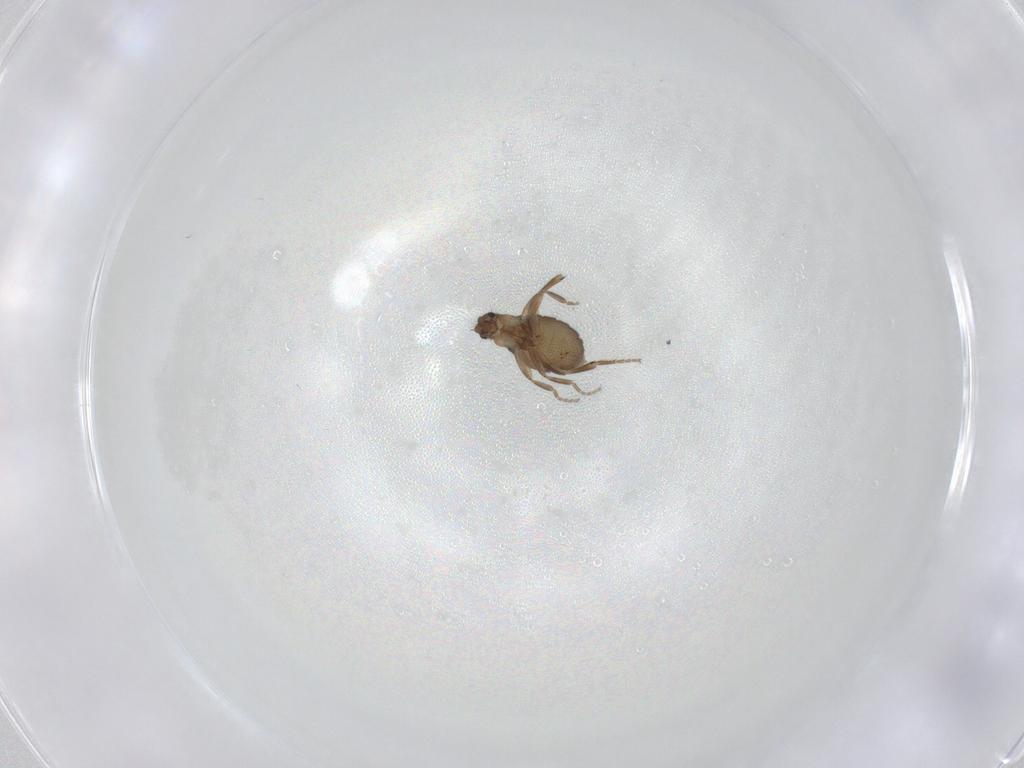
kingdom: Animalia
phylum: Arthropoda
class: Insecta
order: Diptera
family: Phoridae
